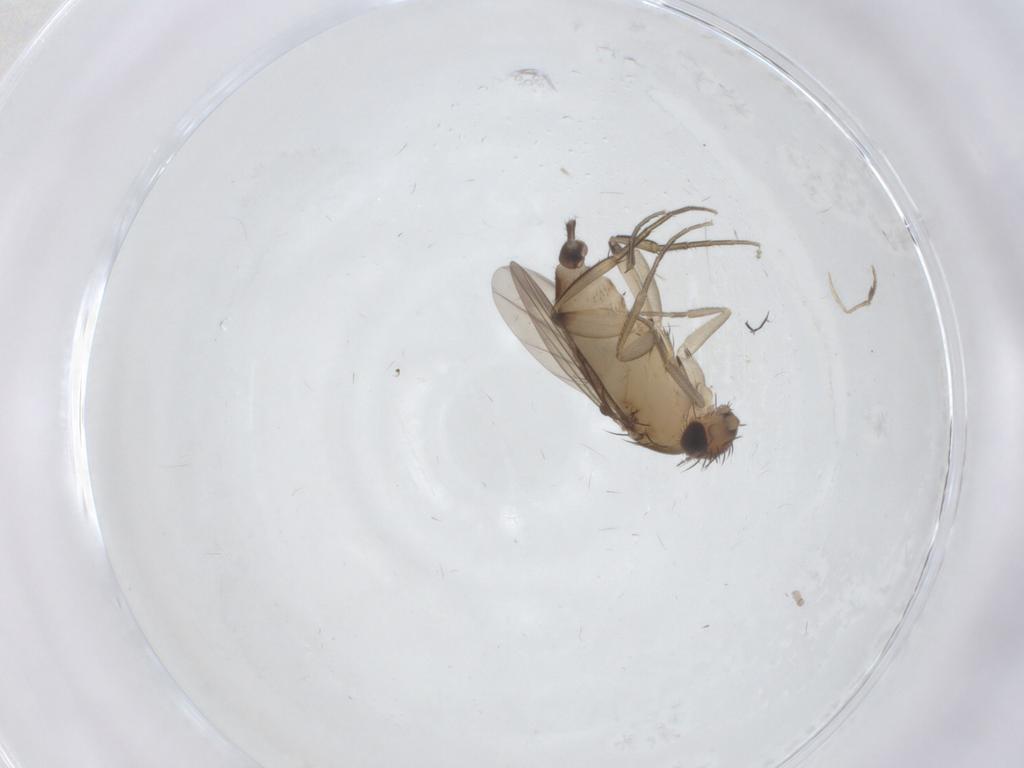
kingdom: Animalia
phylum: Arthropoda
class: Insecta
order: Diptera
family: Phoridae
